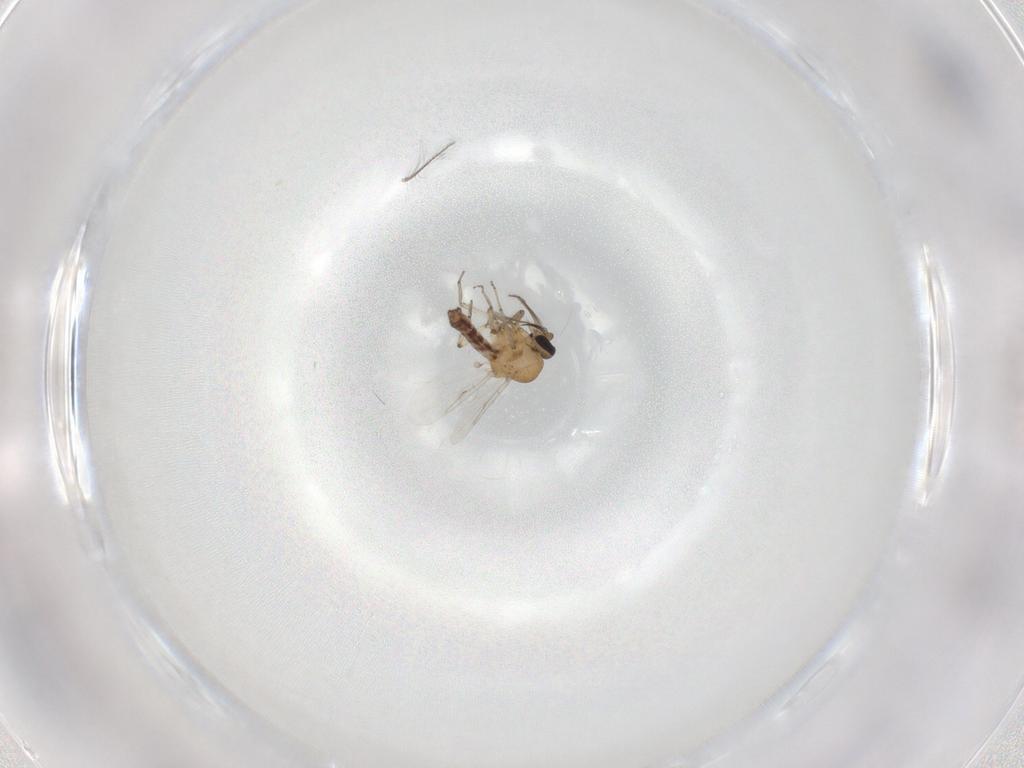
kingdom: Animalia
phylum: Arthropoda
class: Insecta
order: Diptera
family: Ceratopogonidae
